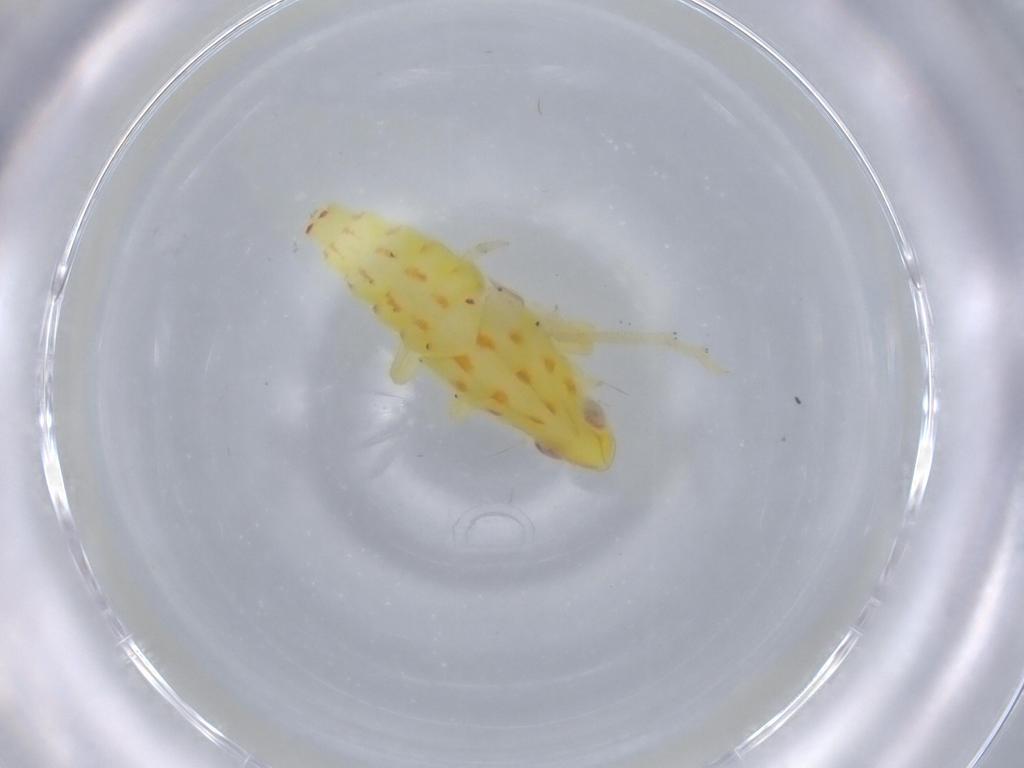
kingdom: Animalia
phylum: Arthropoda
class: Insecta
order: Hemiptera
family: Tropiduchidae
